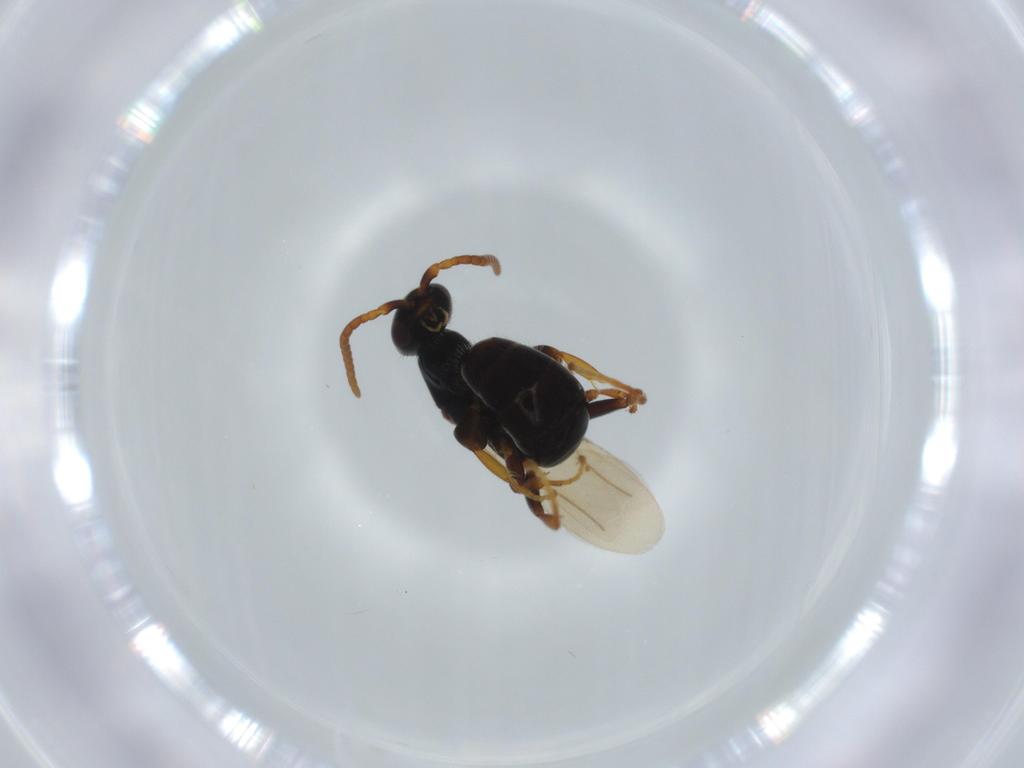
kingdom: Animalia
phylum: Arthropoda
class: Insecta
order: Hymenoptera
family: Bethylidae
